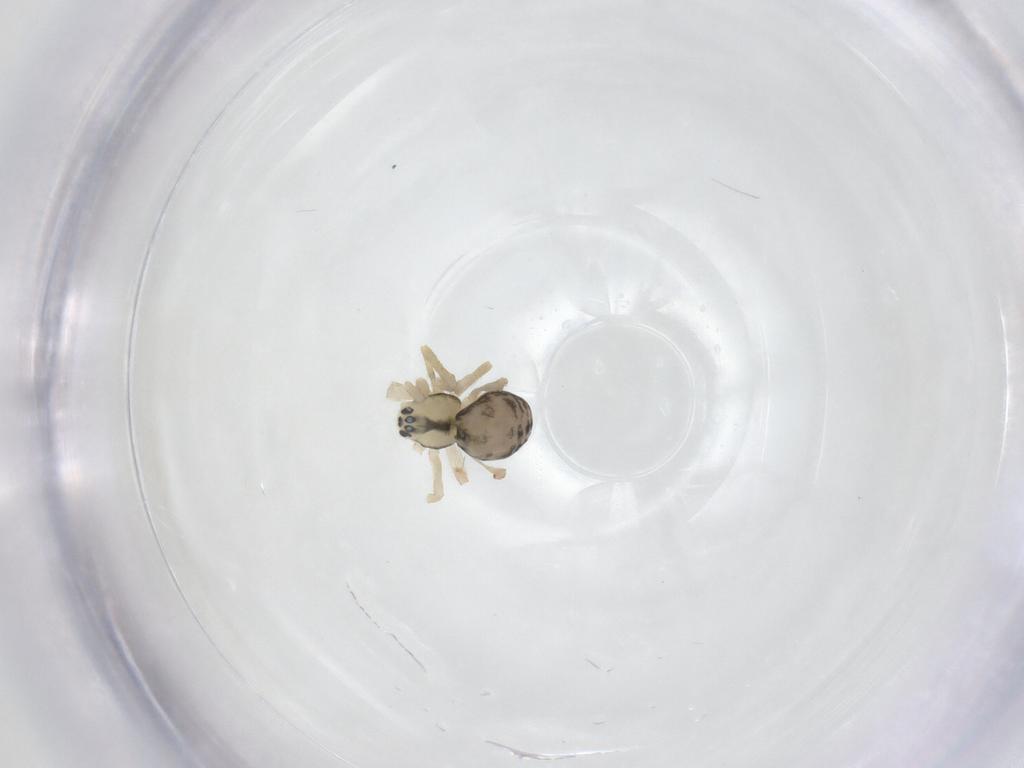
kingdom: Animalia
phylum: Arthropoda
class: Arachnida
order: Araneae
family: Theridiidae
